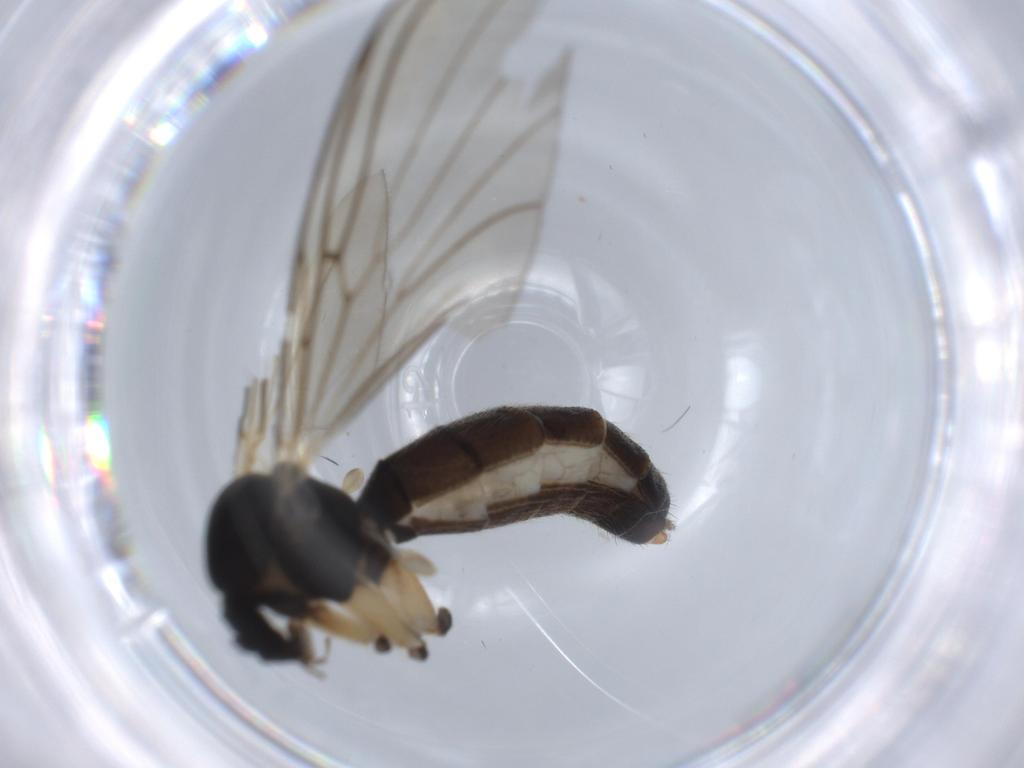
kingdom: Animalia
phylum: Arthropoda
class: Insecta
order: Diptera
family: Mycetophilidae
